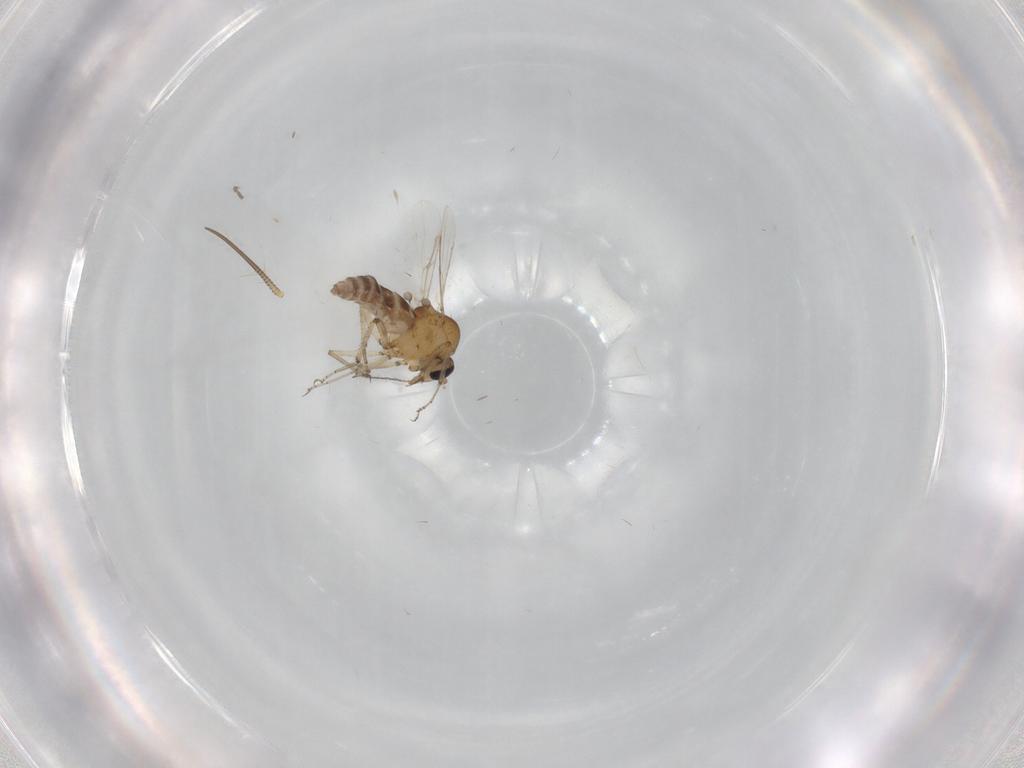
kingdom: Animalia
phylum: Arthropoda
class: Insecta
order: Diptera
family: Ceratopogonidae
